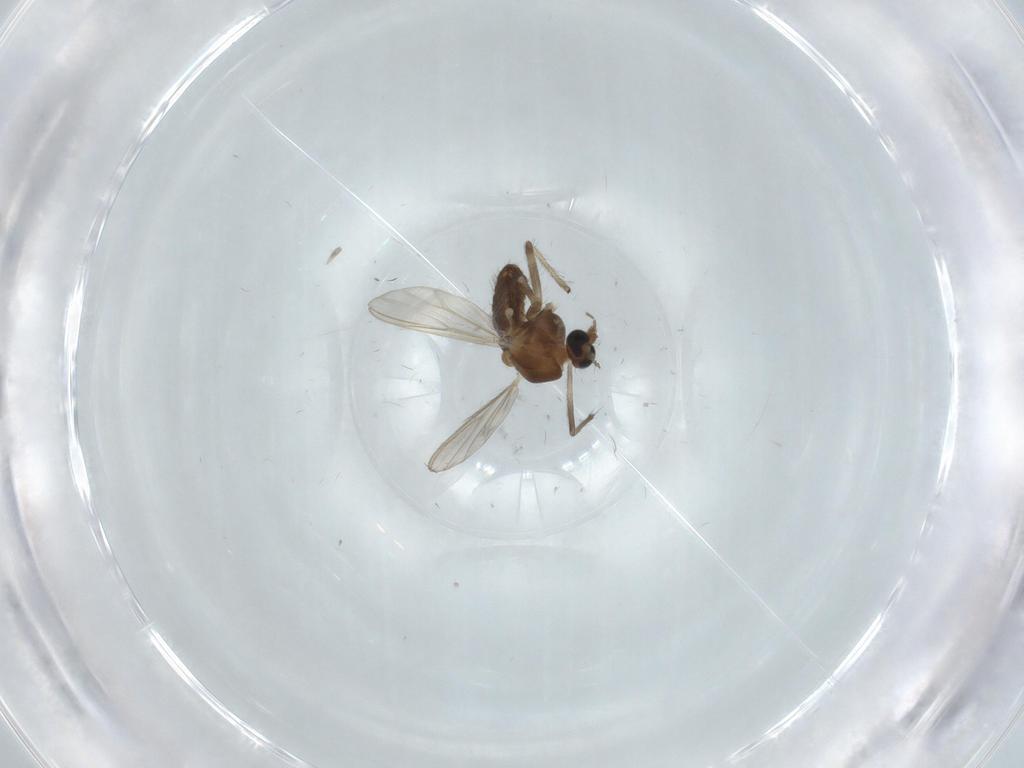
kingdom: Animalia
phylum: Arthropoda
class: Insecta
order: Diptera
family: Chironomidae
